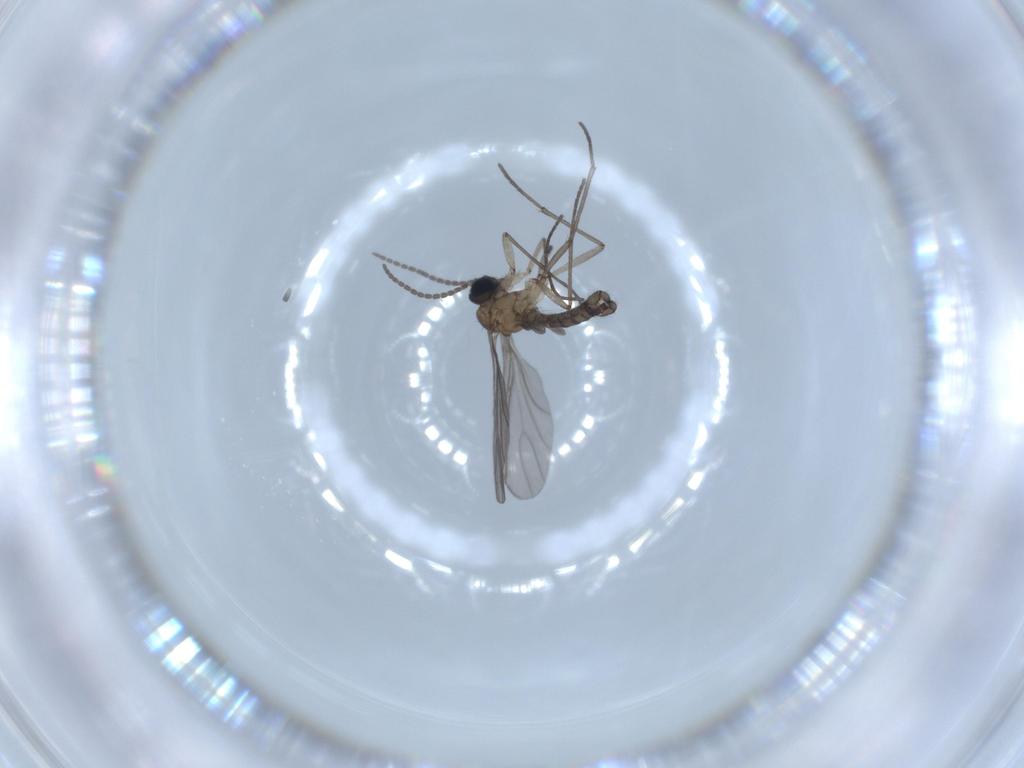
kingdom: Animalia
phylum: Arthropoda
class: Insecta
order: Diptera
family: Sciaridae
